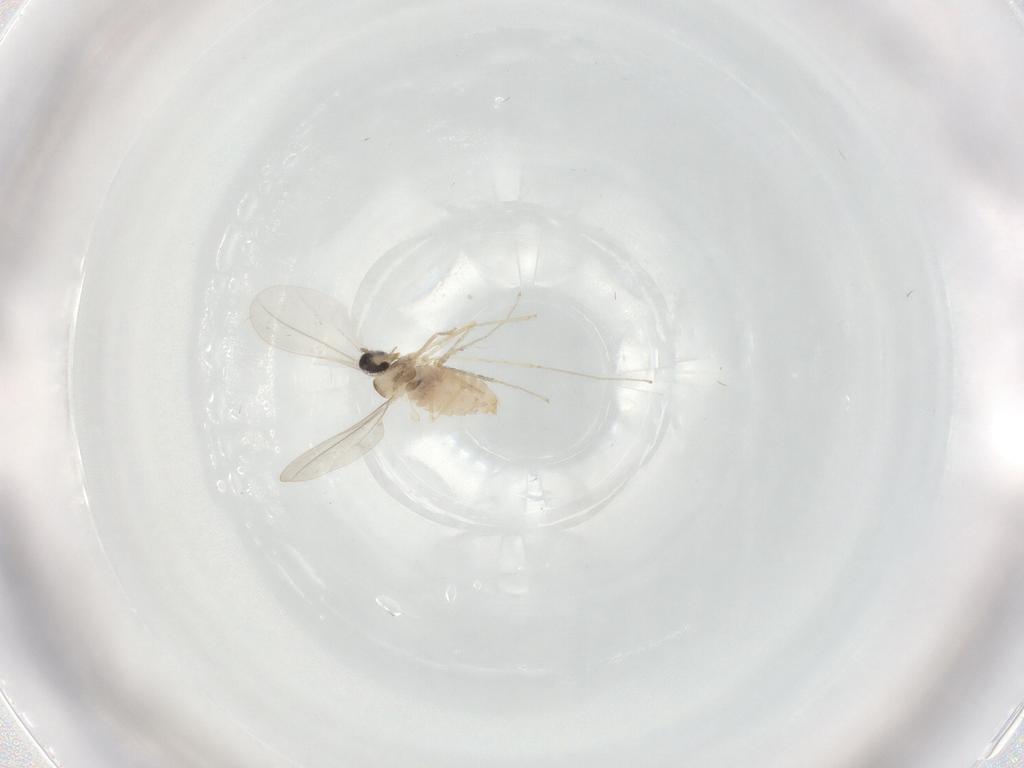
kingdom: Animalia
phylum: Arthropoda
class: Insecta
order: Diptera
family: Cecidomyiidae
